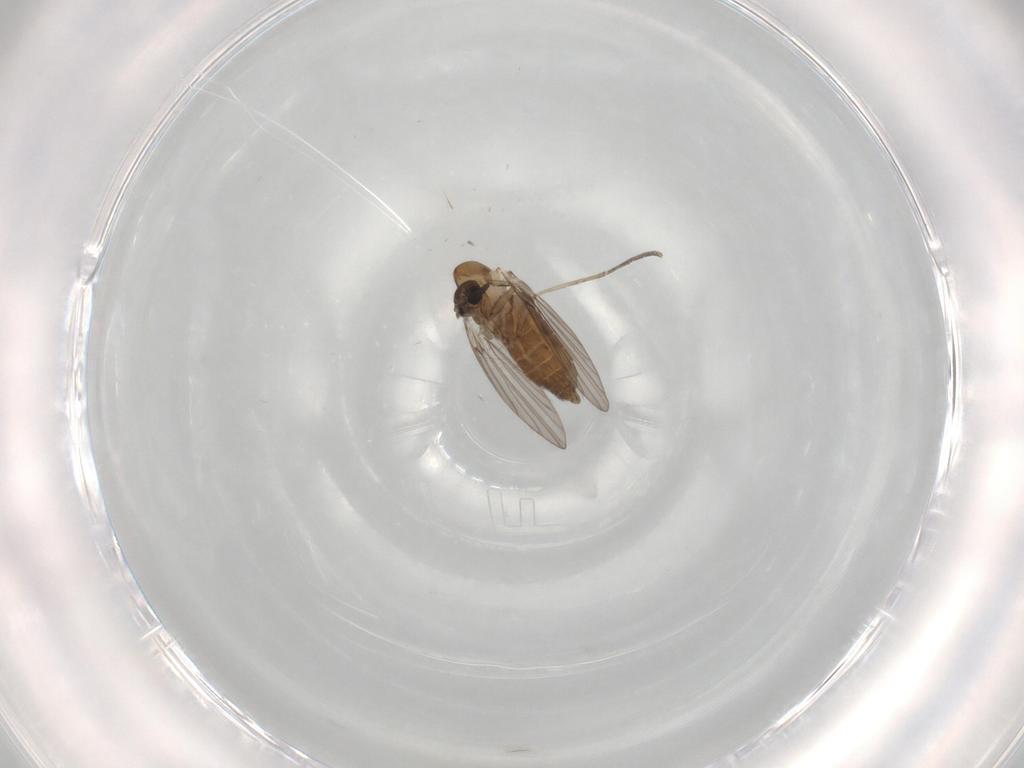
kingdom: Animalia
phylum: Arthropoda
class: Insecta
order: Diptera
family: Psychodidae
